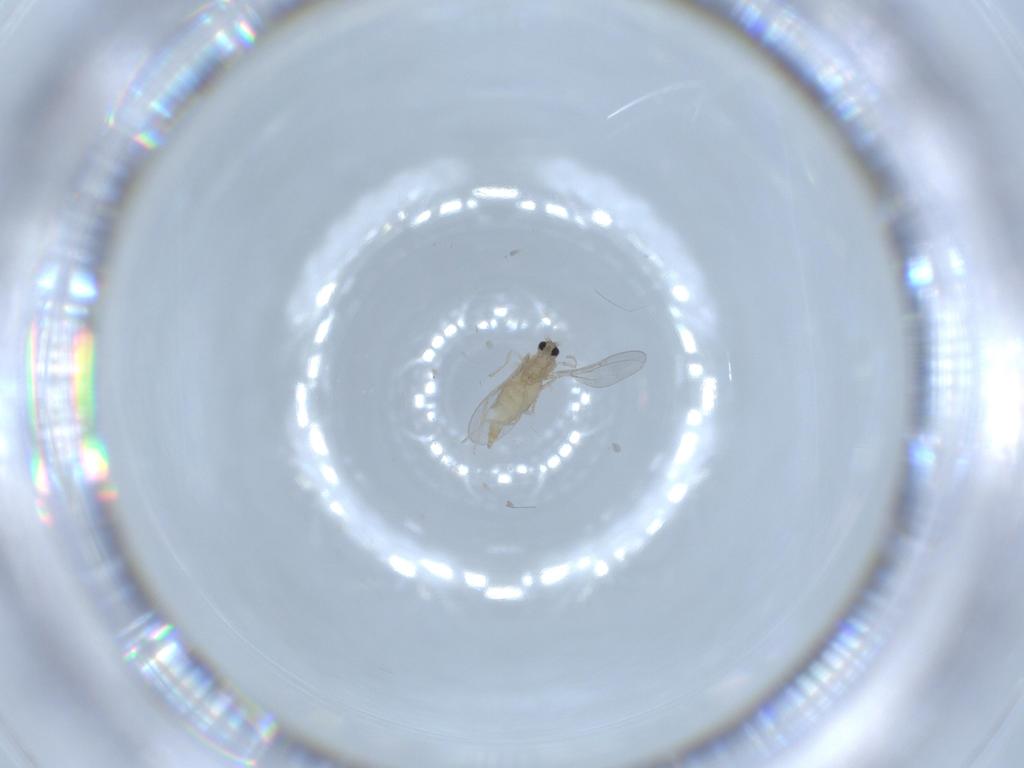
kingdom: Animalia
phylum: Arthropoda
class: Insecta
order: Diptera
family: Cecidomyiidae
